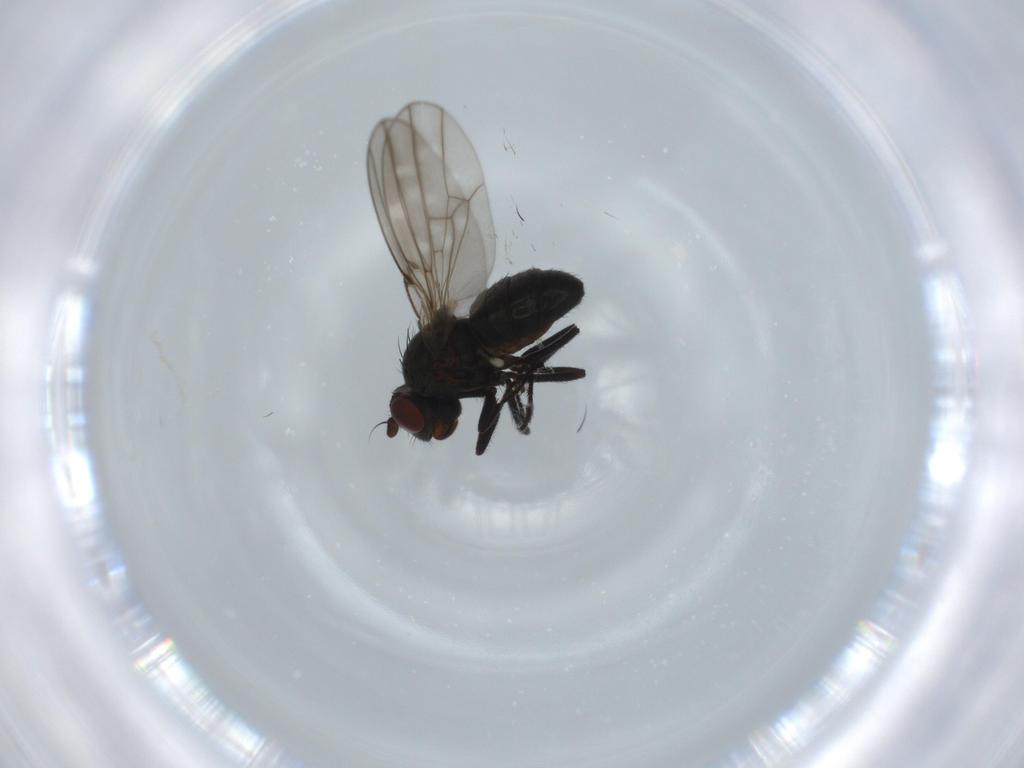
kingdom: Animalia
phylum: Arthropoda
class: Insecta
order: Diptera
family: Ephydridae
